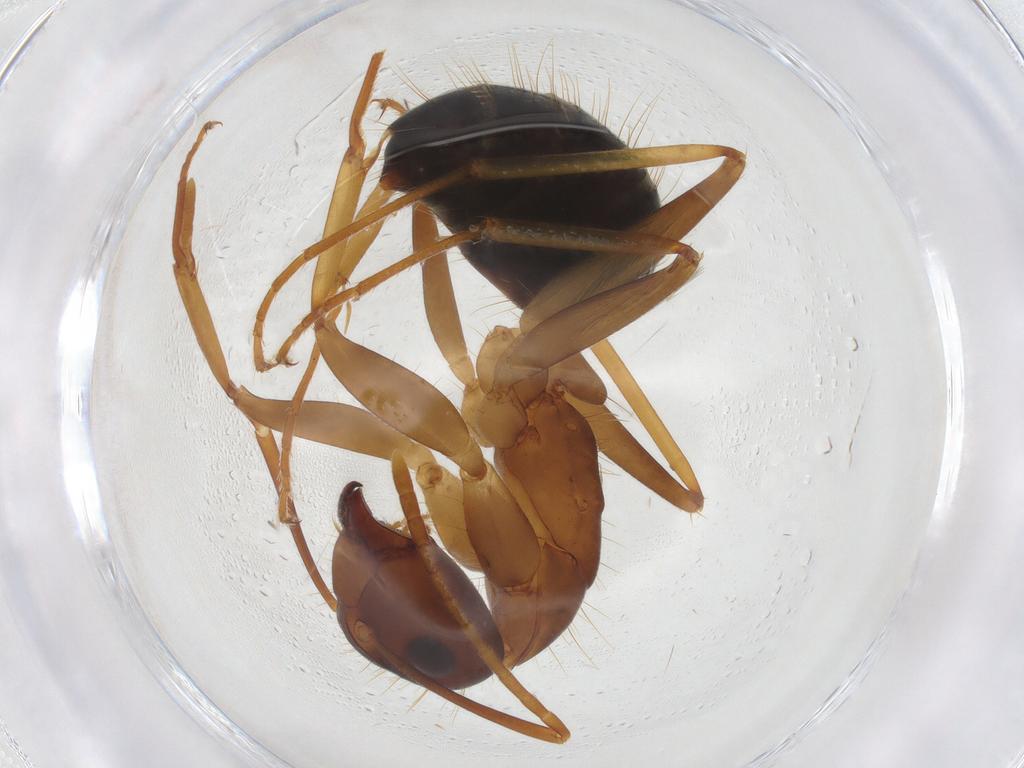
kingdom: Animalia
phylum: Arthropoda
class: Insecta
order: Hymenoptera
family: Formicidae
